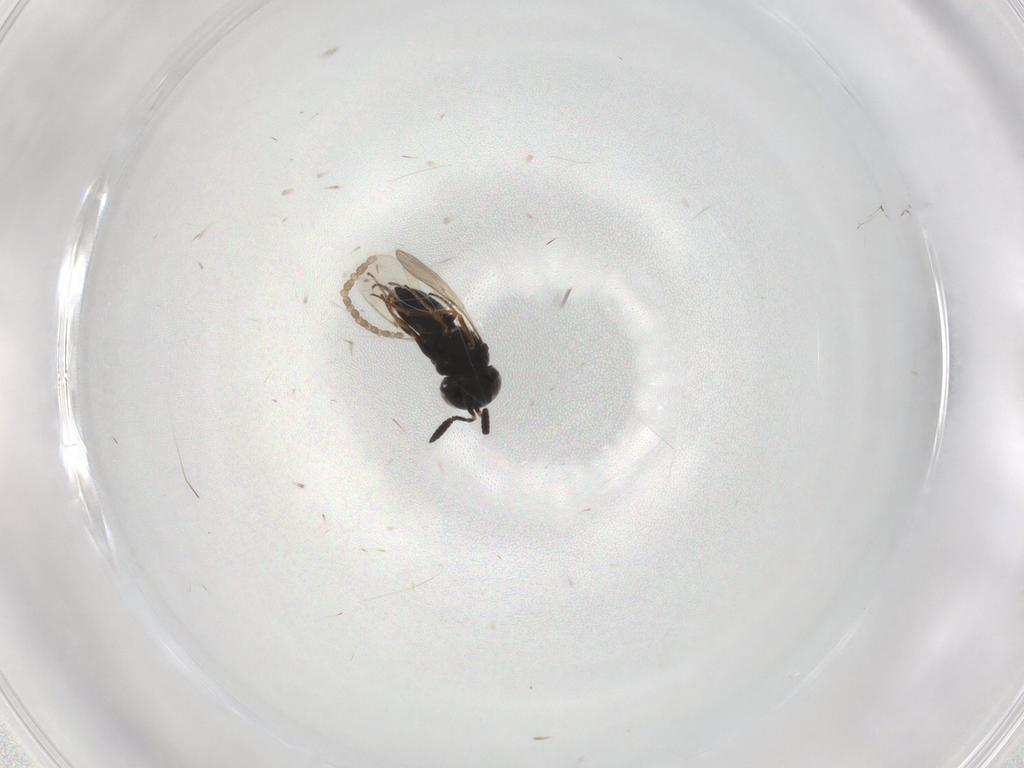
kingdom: Animalia
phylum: Arthropoda
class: Insecta
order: Hymenoptera
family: Scelionidae
